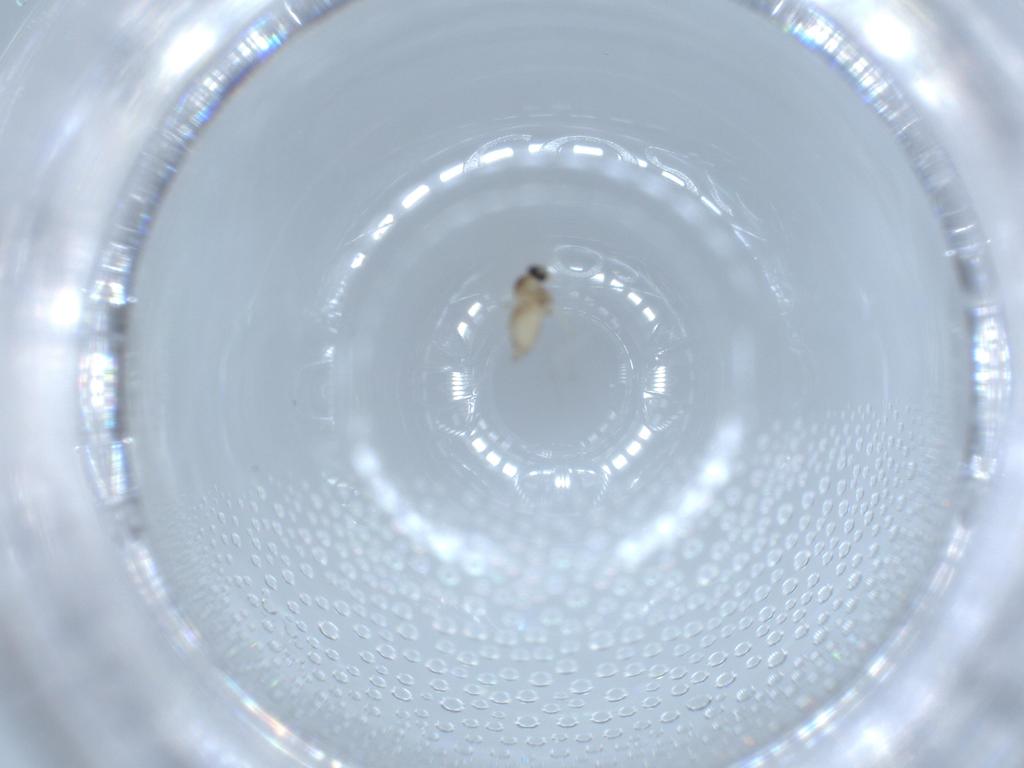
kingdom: Animalia
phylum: Arthropoda
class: Insecta
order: Diptera
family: Cecidomyiidae
